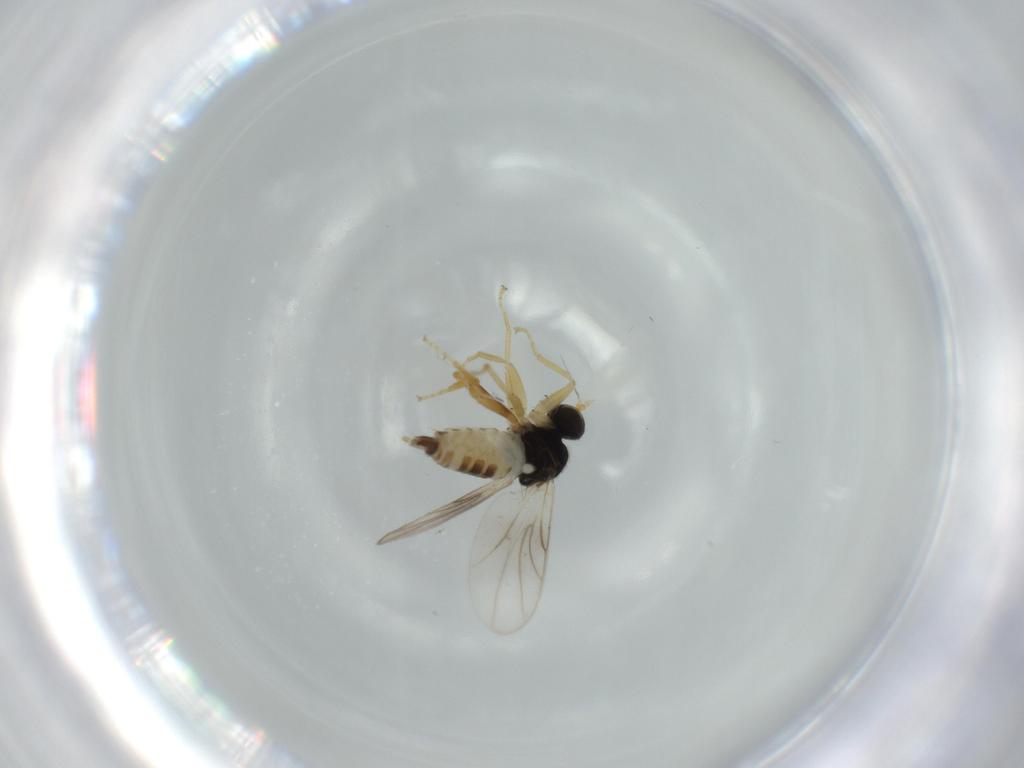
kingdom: Animalia
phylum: Arthropoda
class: Insecta
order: Diptera
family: Hybotidae
